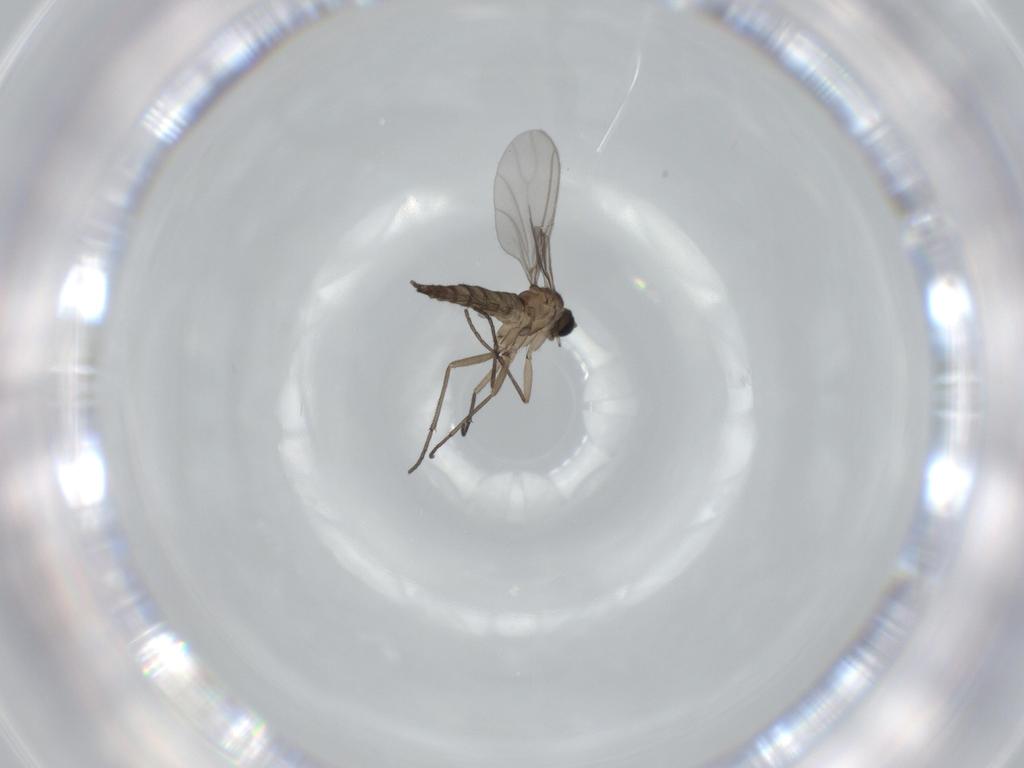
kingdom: Animalia
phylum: Arthropoda
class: Insecta
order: Diptera
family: Sciaridae
